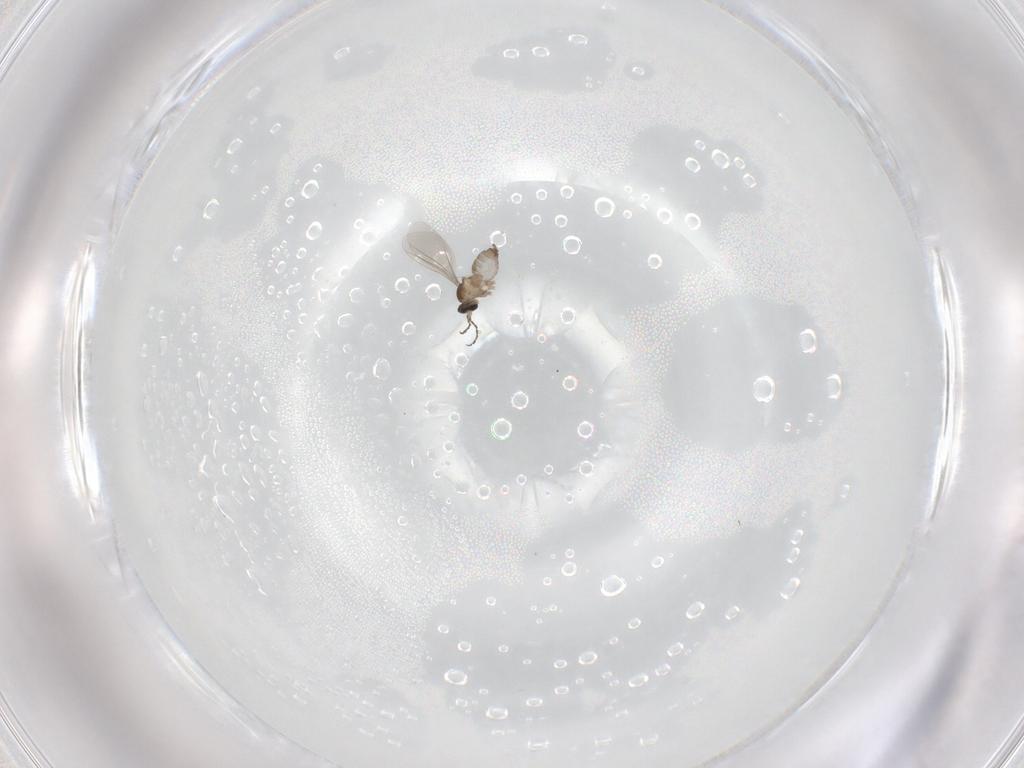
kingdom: Animalia
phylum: Arthropoda
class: Insecta
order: Diptera
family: Cecidomyiidae
